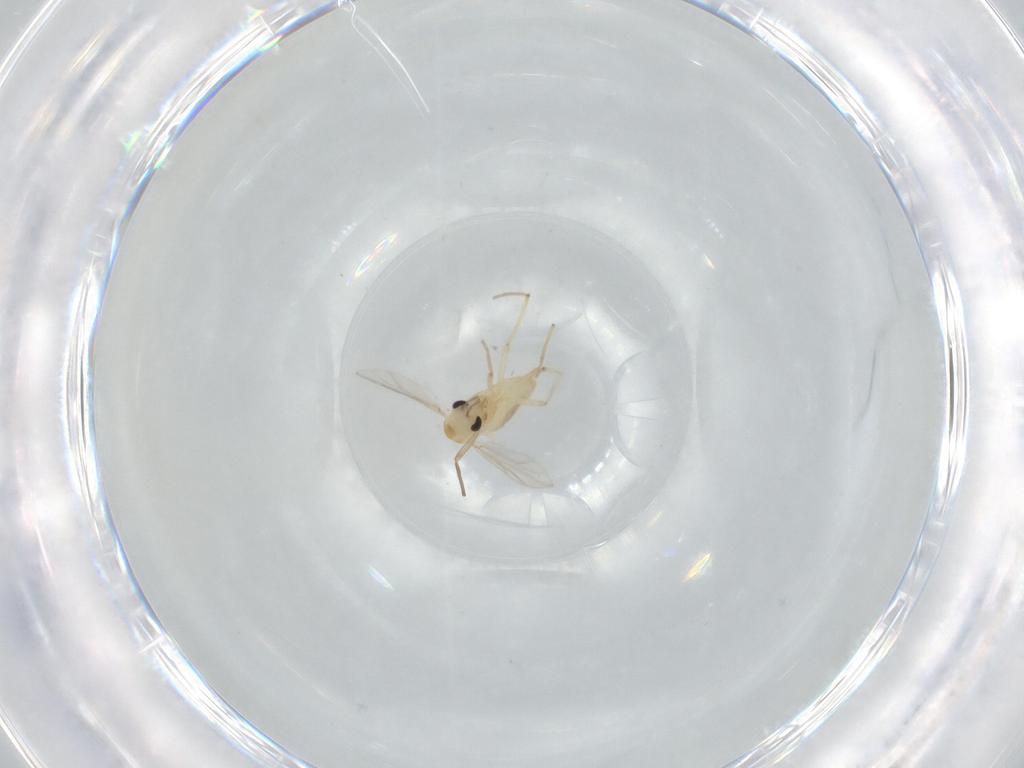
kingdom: Animalia
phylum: Arthropoda
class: Insecta
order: Diptera
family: Chironomidae
